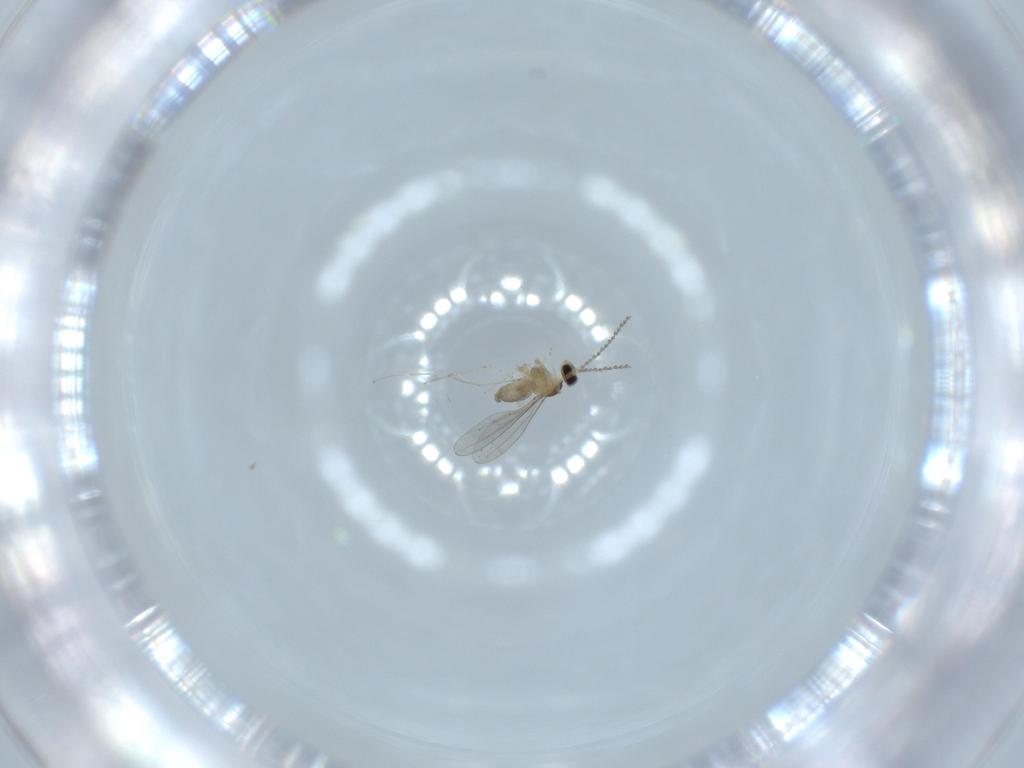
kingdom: Animalia
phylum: Arthropoda
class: Insecta
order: Diptera
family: Cecidomyiidae
